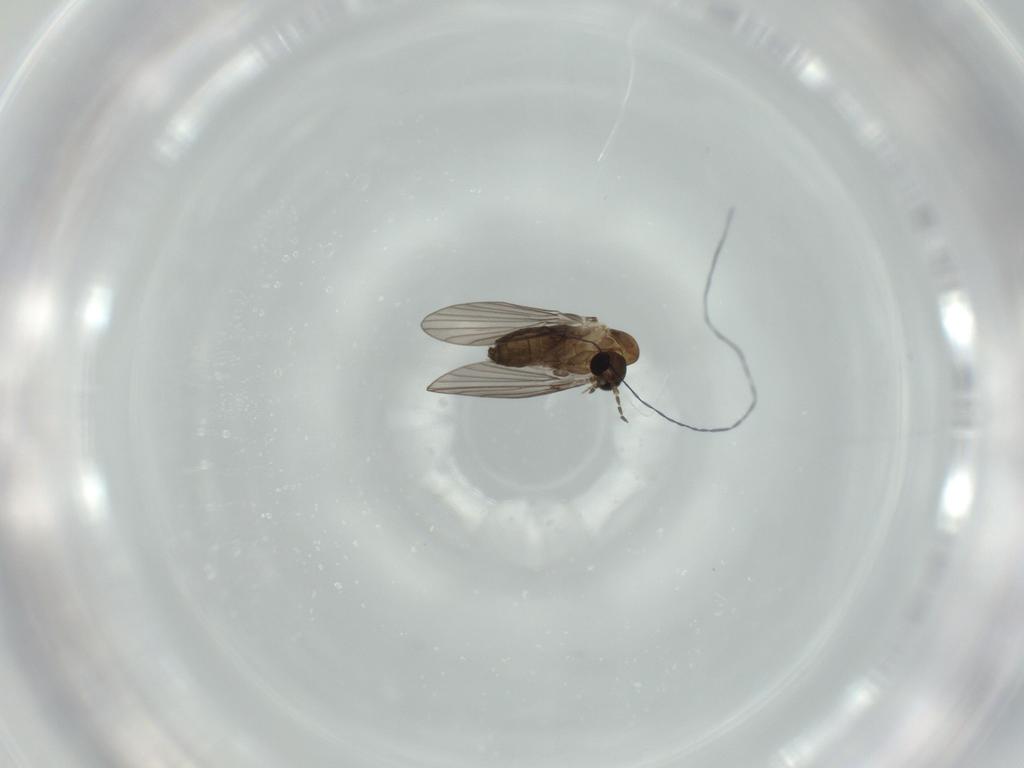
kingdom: Animalia
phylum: Arthropoda
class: Insecta
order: Diptera
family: Cecidomyiidae
